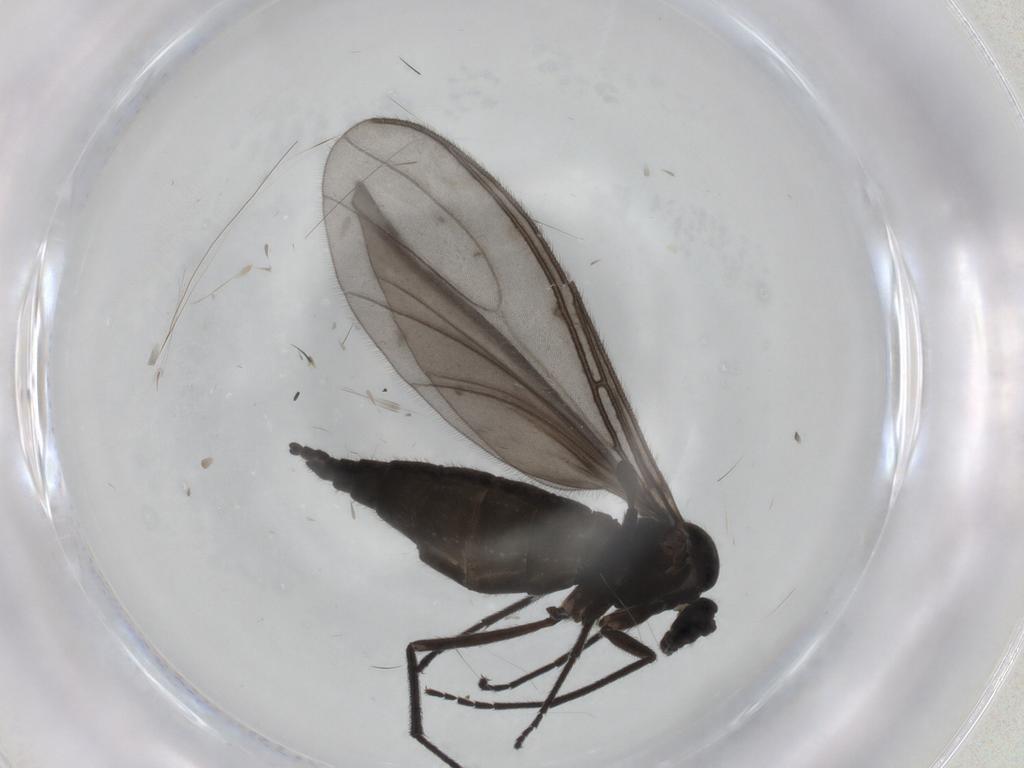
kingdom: Animalia
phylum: Arthropoda
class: Insecta
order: Diptera
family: Sciaridae
